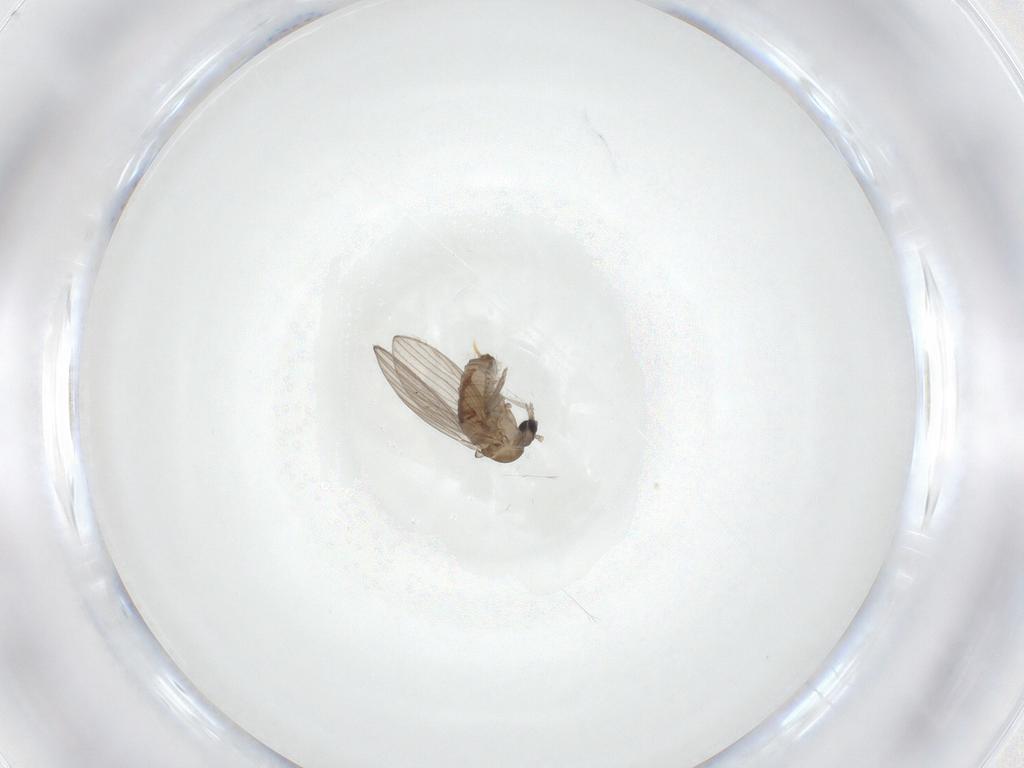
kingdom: Animalia
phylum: Arthropoda
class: Insecta
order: Diptera
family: Psychodidae
